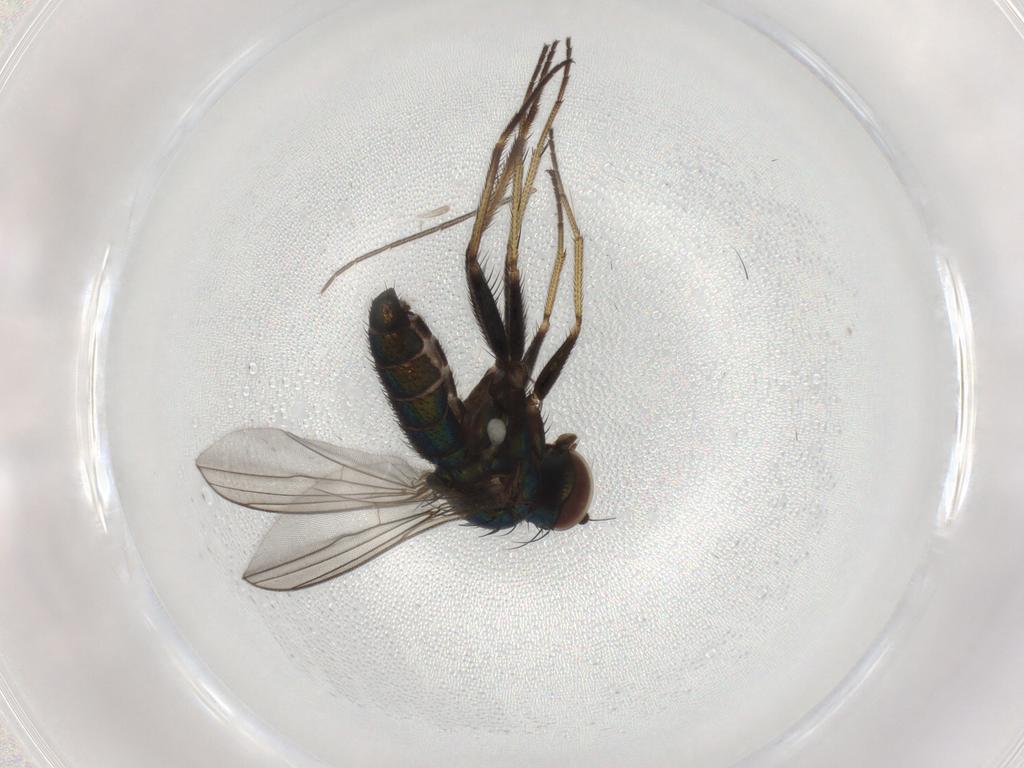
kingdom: Animalia
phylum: Arthropoda
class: Insecta
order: Diptera
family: Dolichopodidae
